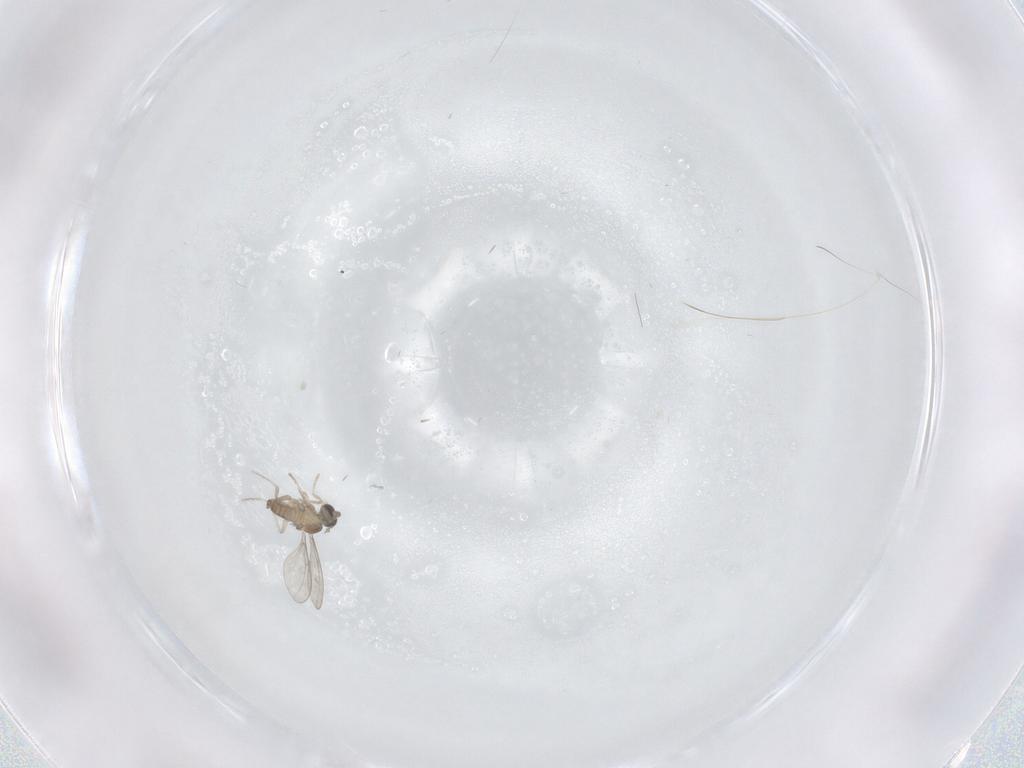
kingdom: Animalia
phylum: Arthropoda
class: Insecta
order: Diptera
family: Cecidomyiidae
